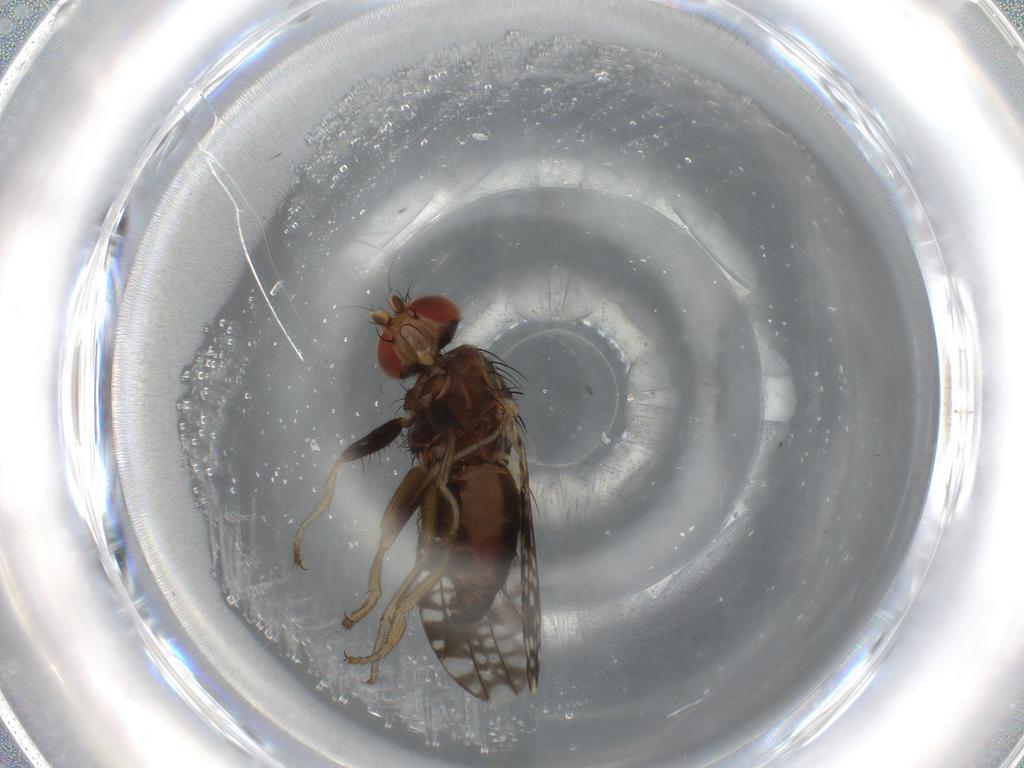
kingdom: Animalia
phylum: Arthropoda
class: Insecta
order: Diptera
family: Tephritidae
